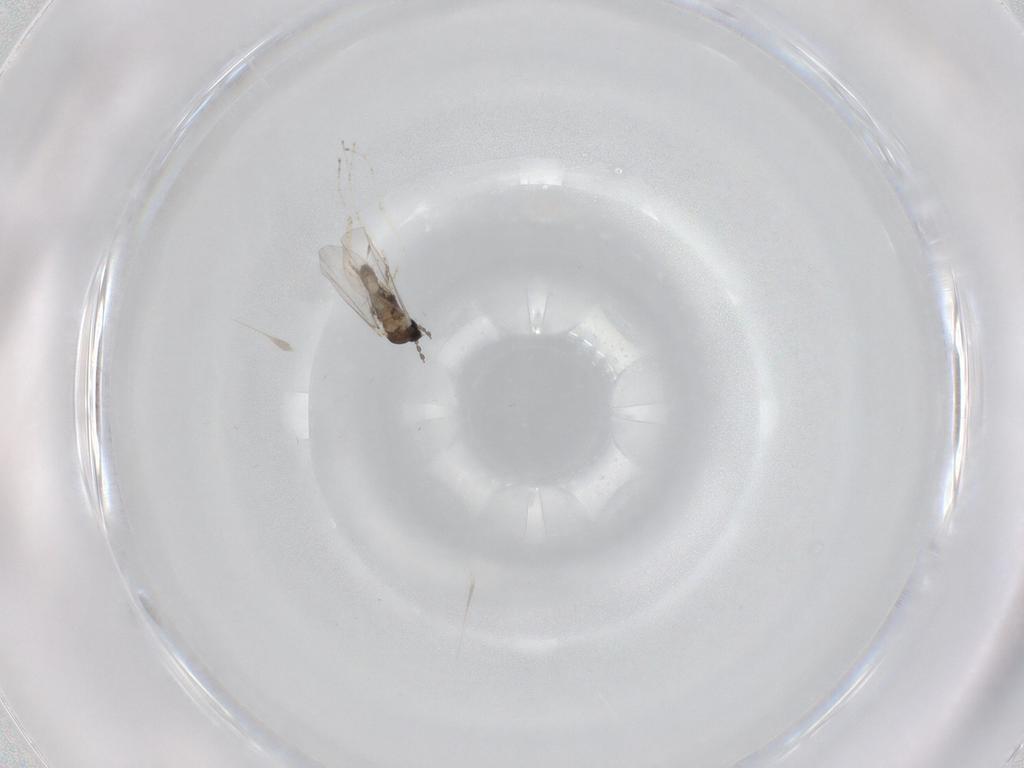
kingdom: Animalia
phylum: Arthropoda
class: Insecta
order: Diptera
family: Cecidomyiidae
